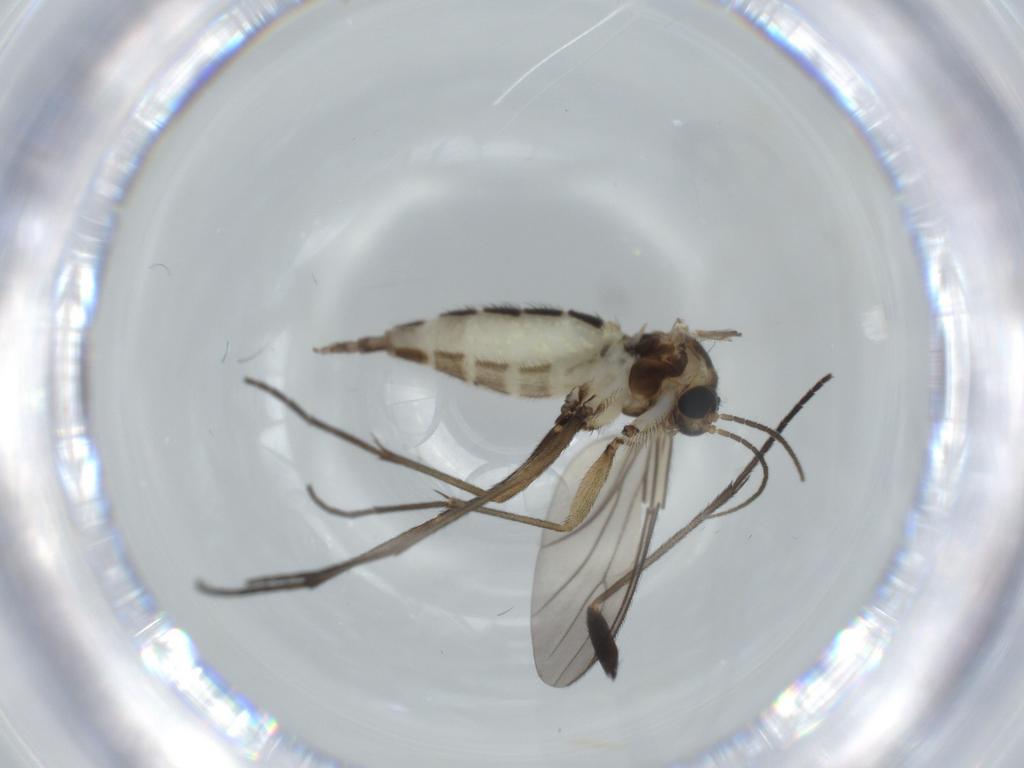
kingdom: Animalia
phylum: Arthropoda
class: Insecta
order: Diptera
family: Sciaridae
